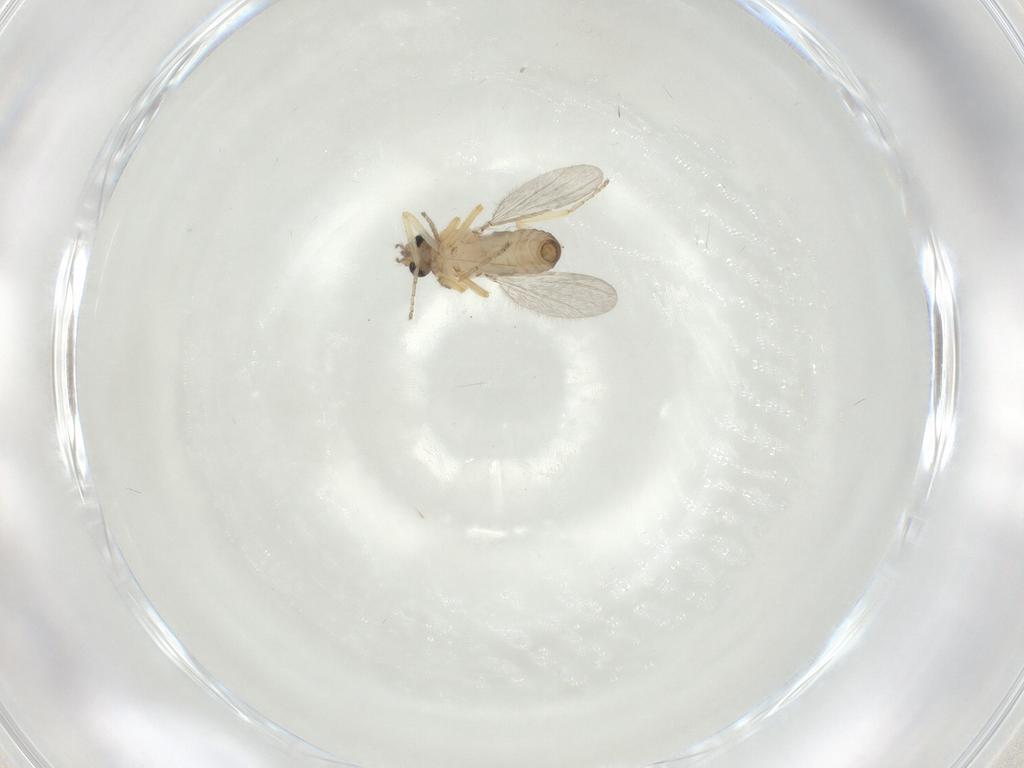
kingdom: Animalia
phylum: Arthropoda
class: Insecta
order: Diptera
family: Ceratopogonidae
